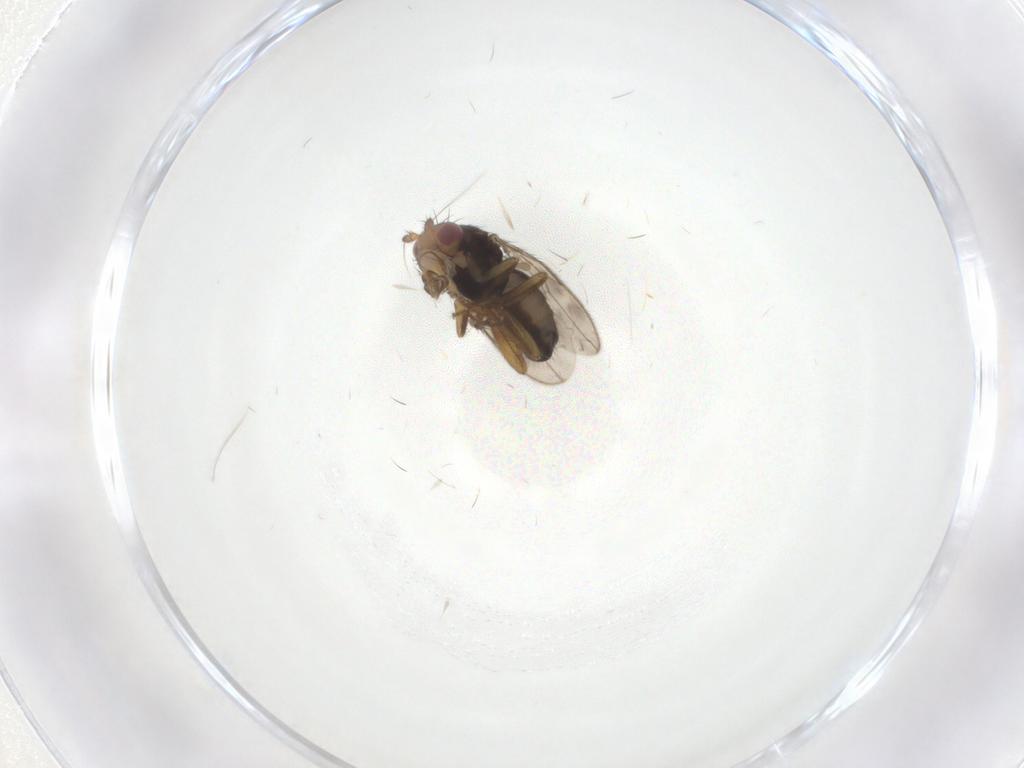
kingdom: Animalia
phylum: Arthropoda
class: Insecta
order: Diptera
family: Sphaeroceridae
